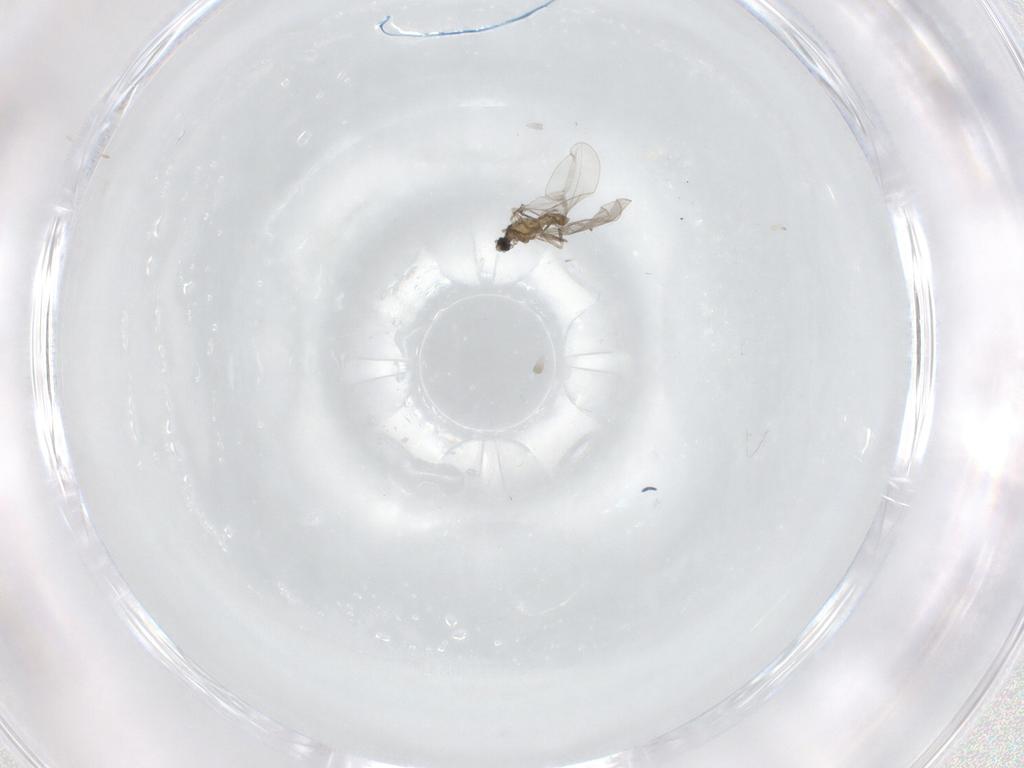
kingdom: Animalia
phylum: Arthropoda
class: Insecta
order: Diptera
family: Cecidomyiidae
